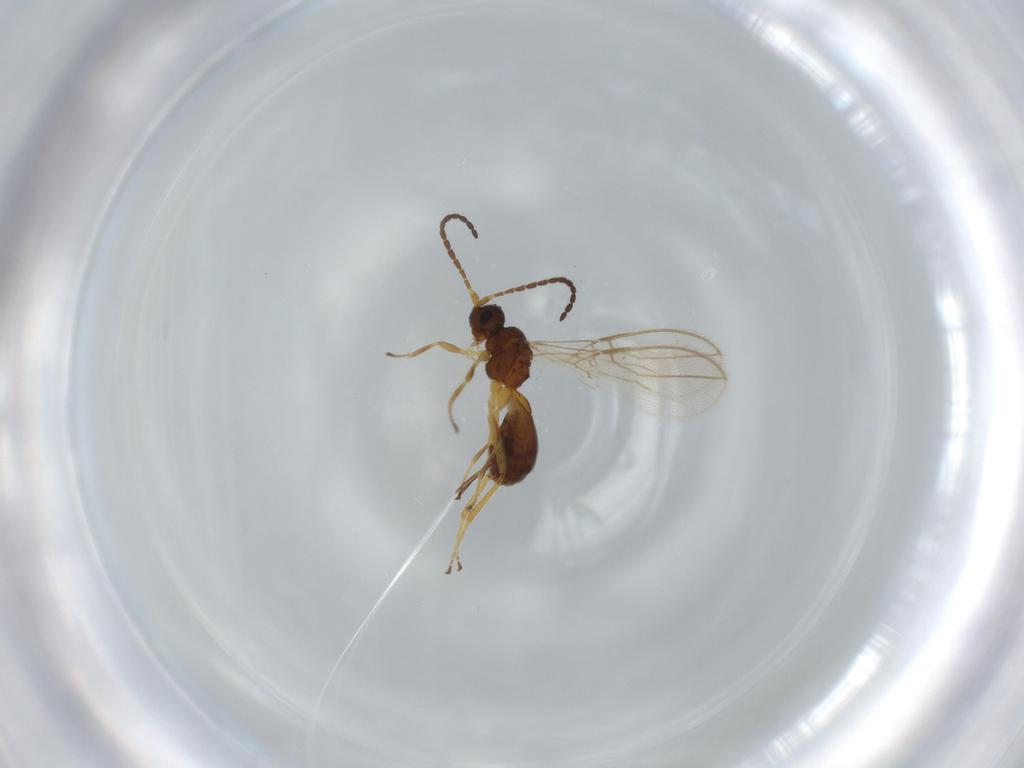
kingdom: Animalia
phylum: Arthropoda
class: Insecta
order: Hymenoptera
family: Braconidae
